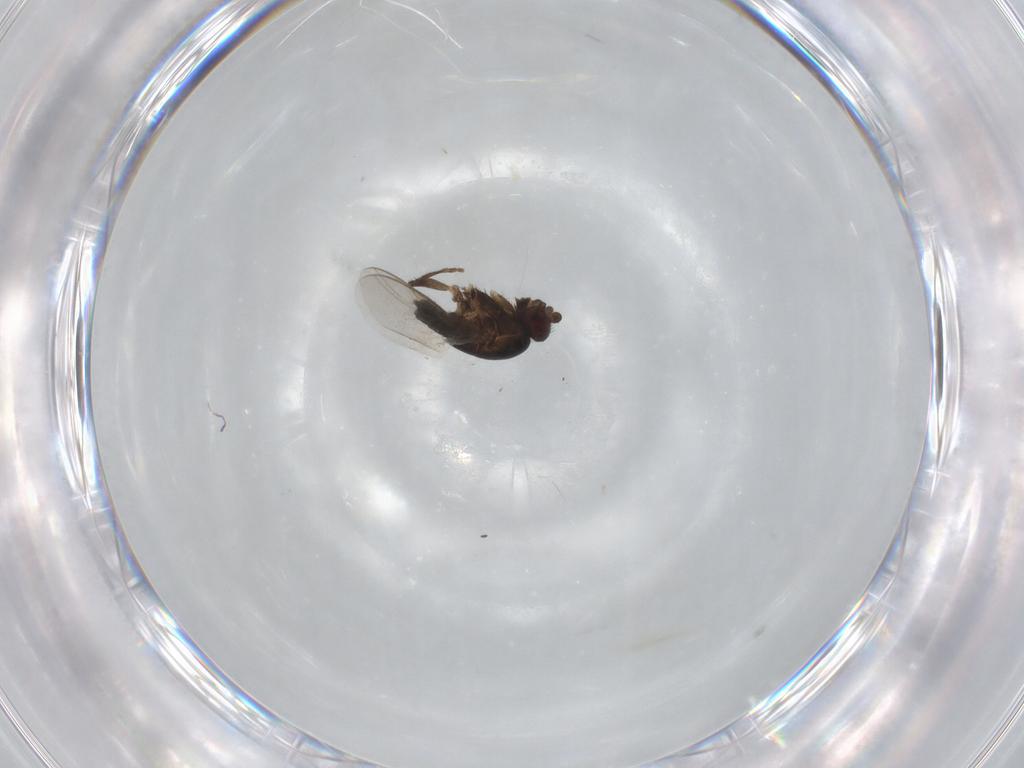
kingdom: Animalia
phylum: Arthropoda
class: Insecta
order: Diptera
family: Sphaeroceridae
